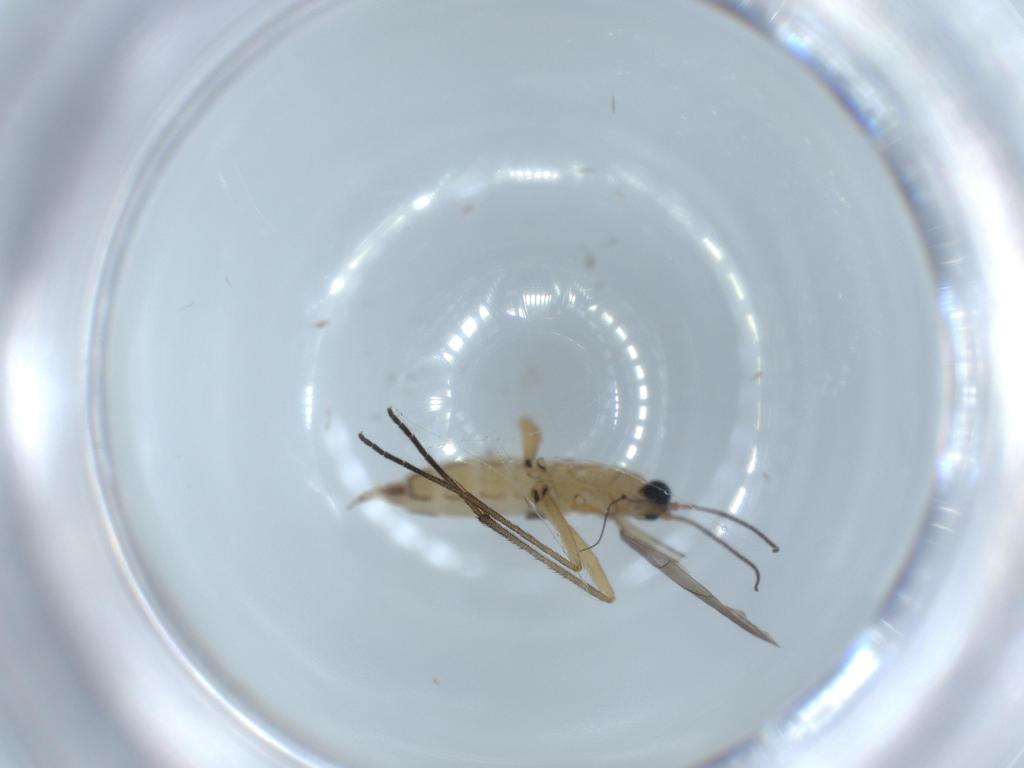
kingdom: Animalia
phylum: Arthropoda
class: Insecta
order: Diptera
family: Sciaridae
